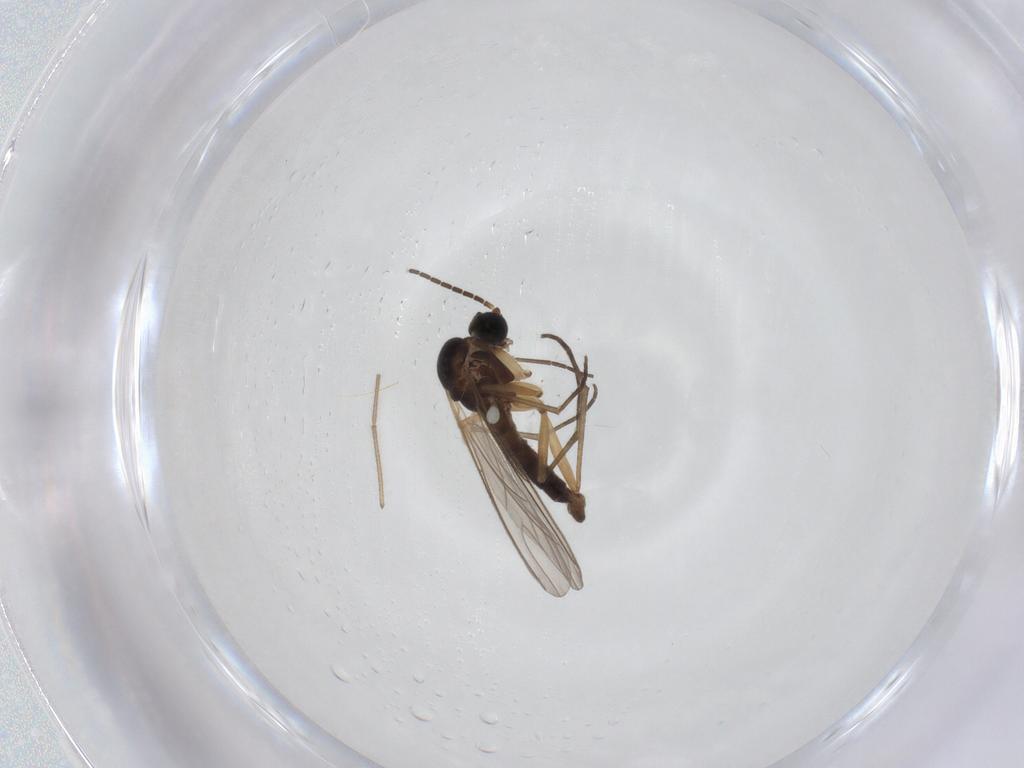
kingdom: Animalia
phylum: Arthropoda
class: Insecta
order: Diptera
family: Sciaridae
